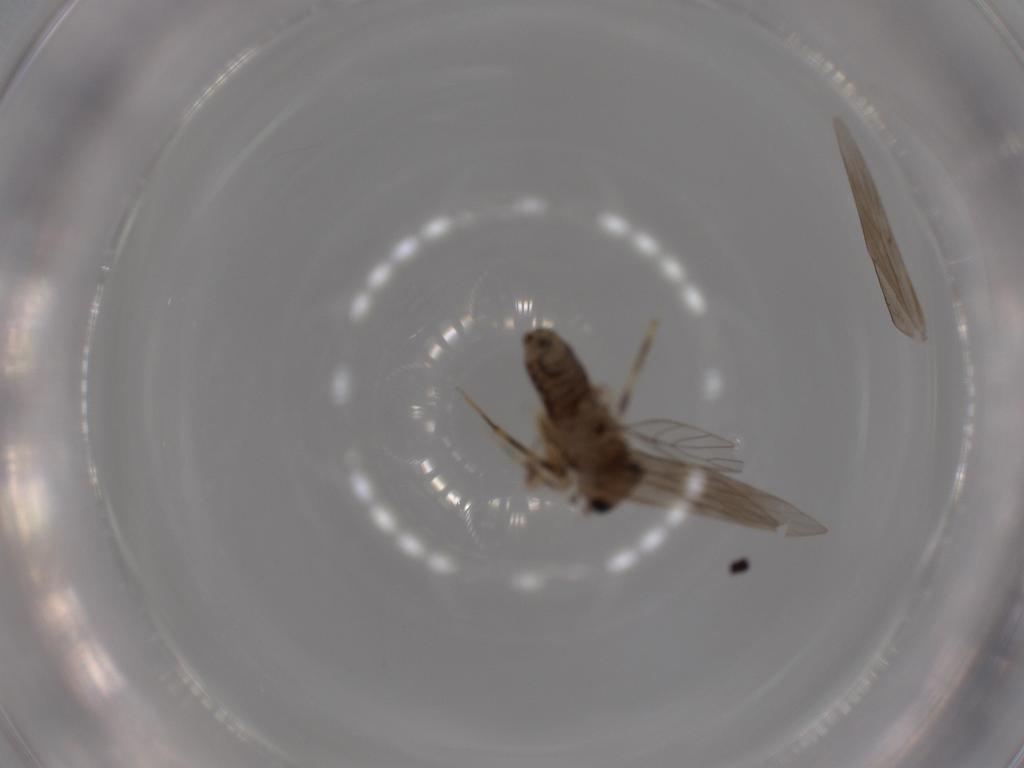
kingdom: Animalia
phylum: Arthropoda
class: Insecta
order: Psocodea
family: Lepidopsocidae
